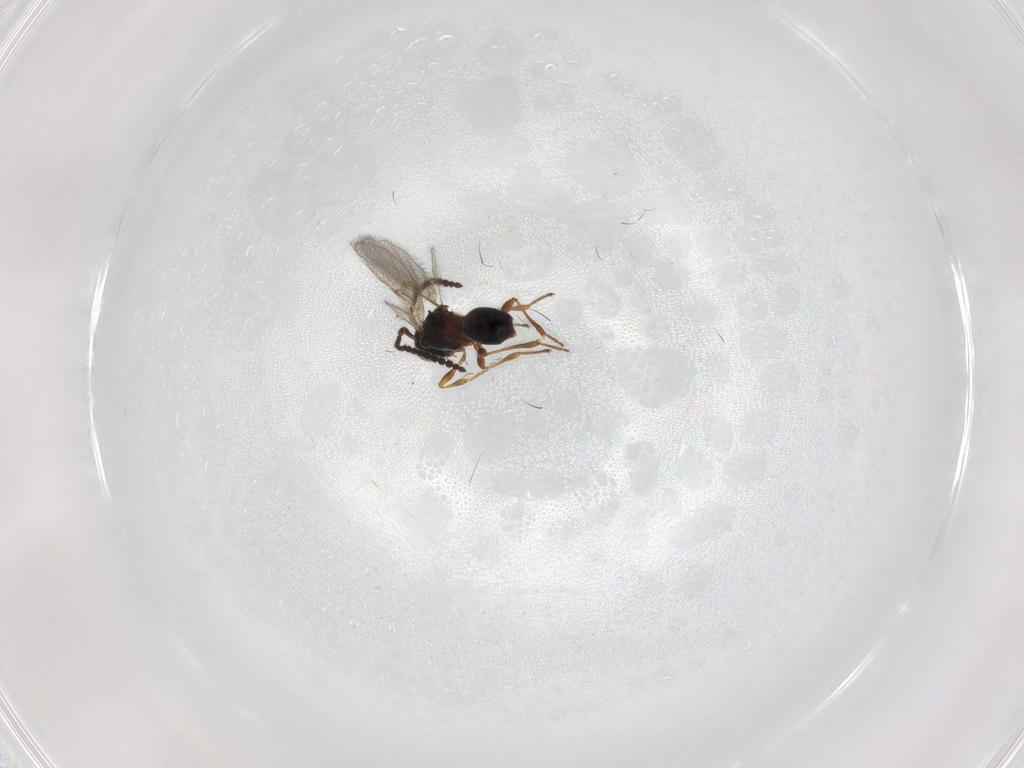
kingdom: Animalia
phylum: Arthropoda
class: Insecta
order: Hymenoptera
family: Diapriidae
